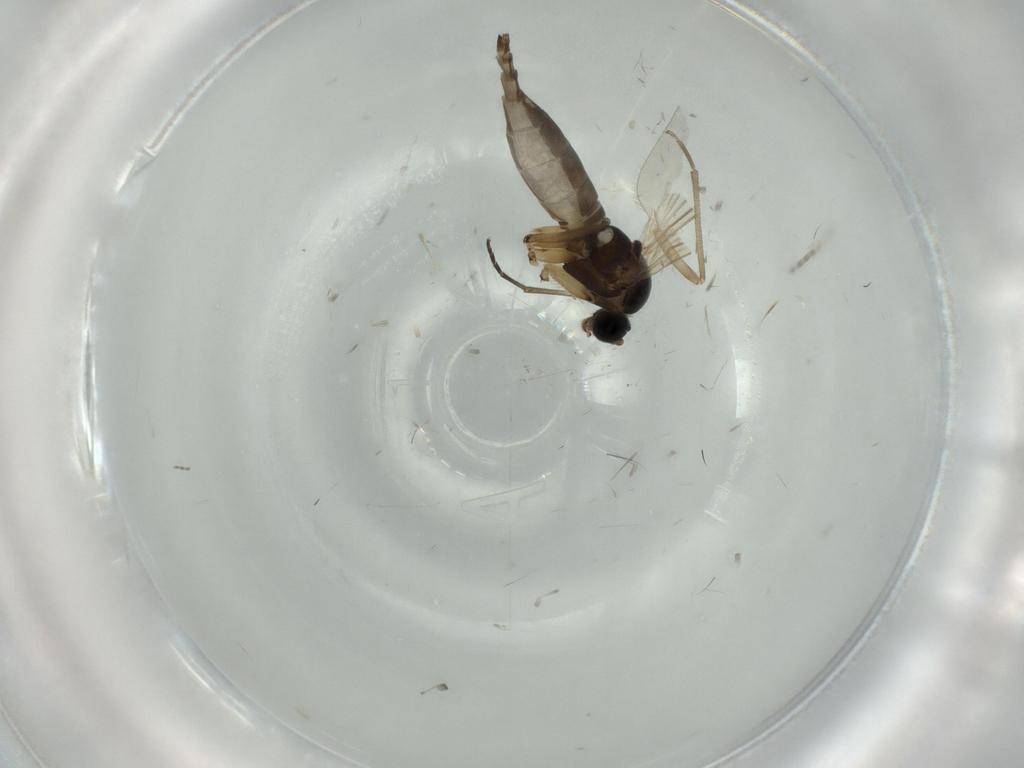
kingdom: Animalia
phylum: Arthropoda
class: Insecta
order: Diptera
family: Sciaridae
